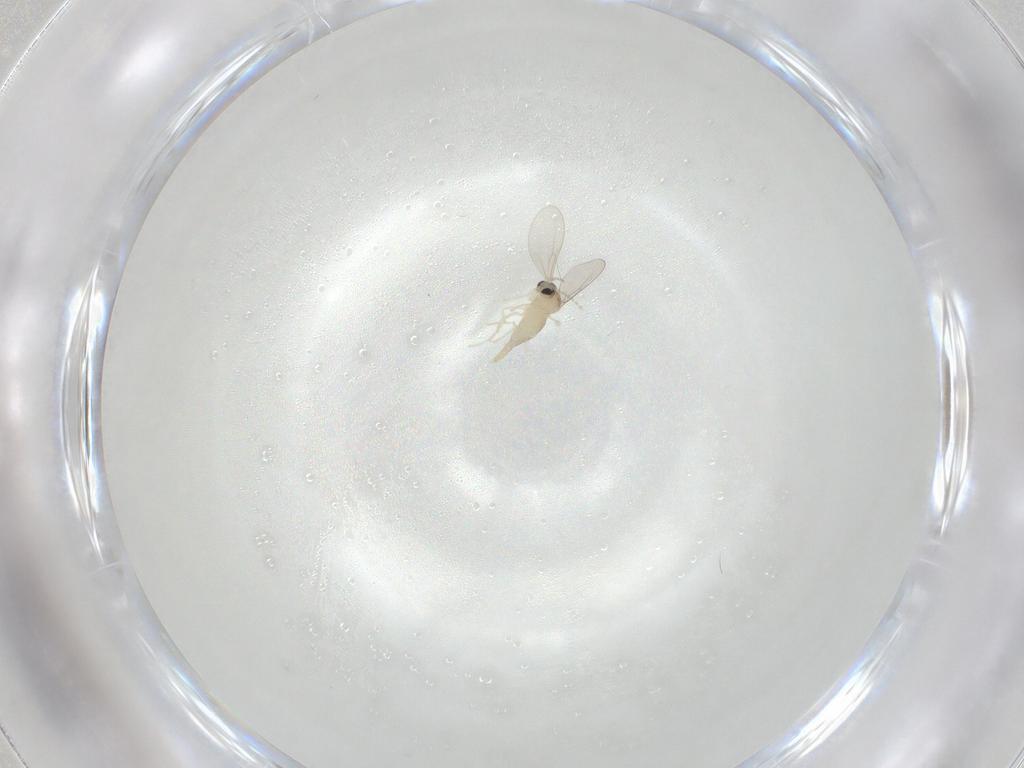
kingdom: Animalia
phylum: Arthropoda
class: Insecta
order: Diptera
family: Cecidomyiidae
